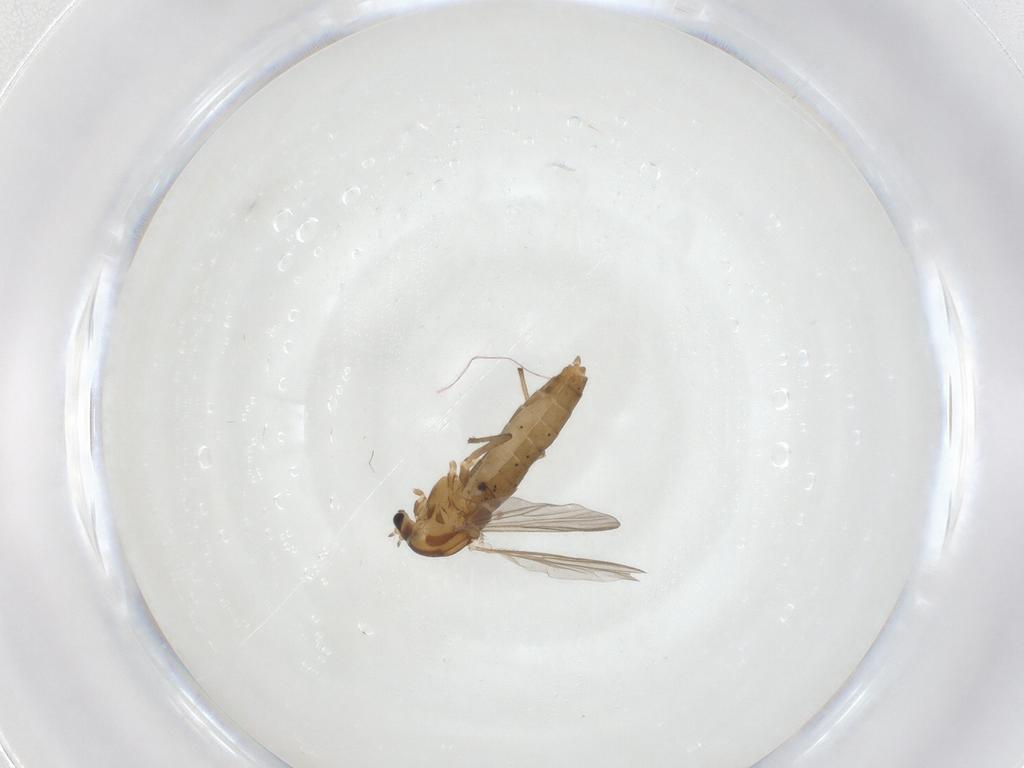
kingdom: Animalia
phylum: Arthropoda
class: Insecta
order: Diptera
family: Chironomidae
